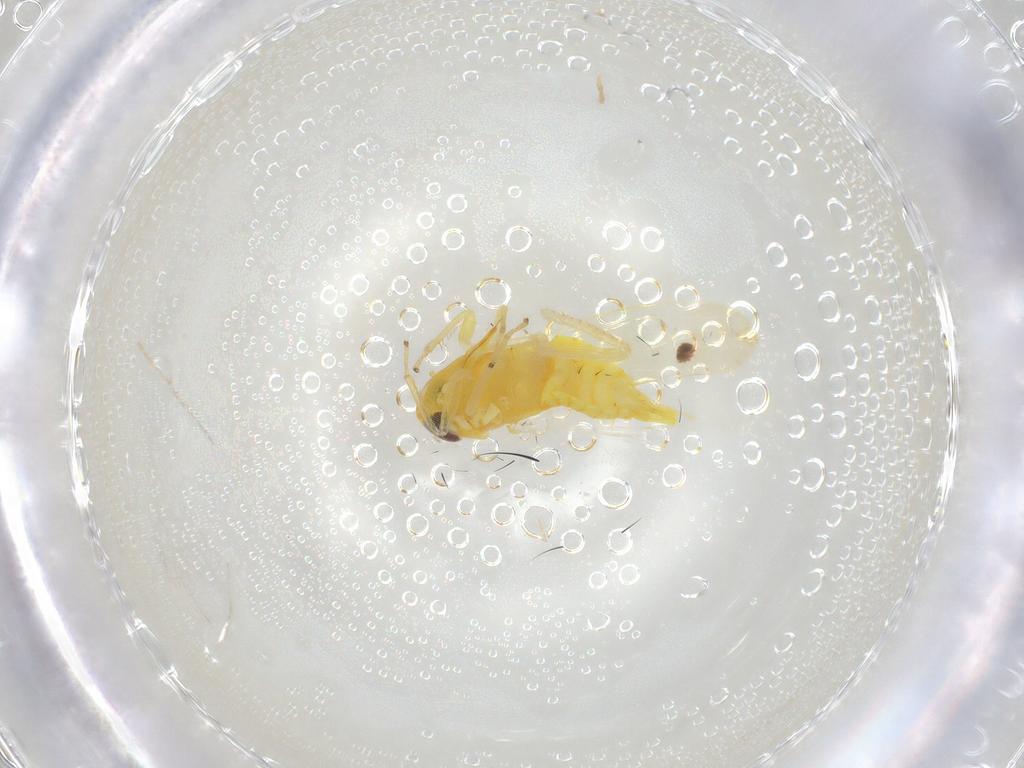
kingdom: Animalia
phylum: Arthropoda
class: Insecta
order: Hemiptera
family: Cicadellidae
